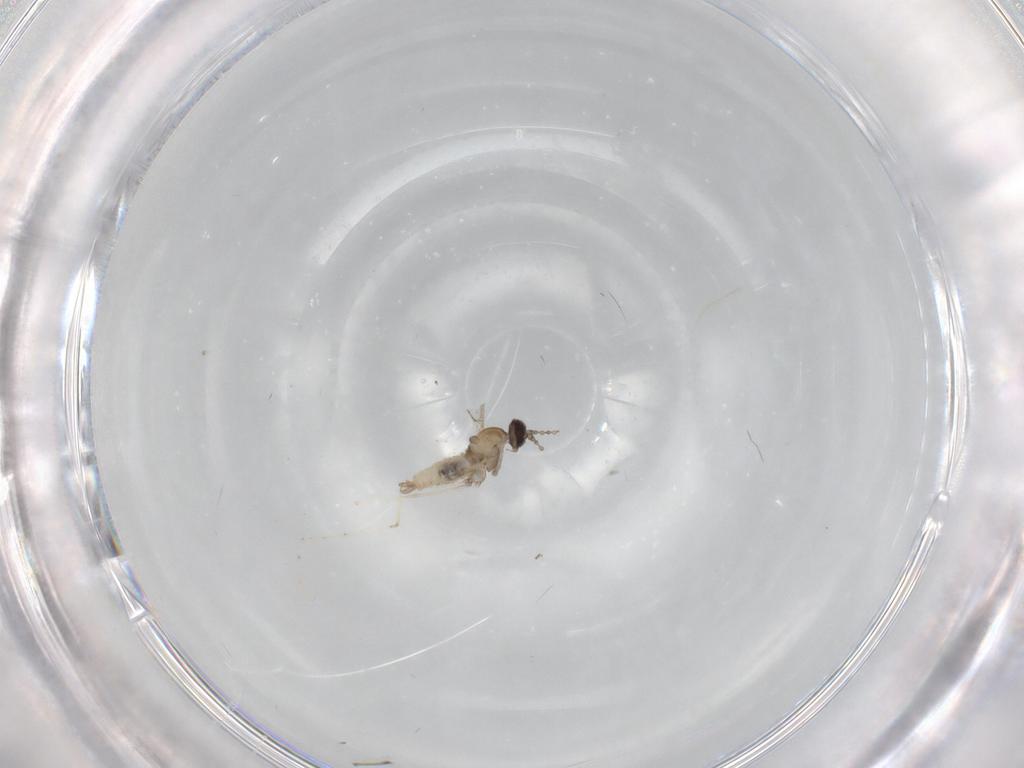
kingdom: Animalia
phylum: Arthropoda
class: Insecta
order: Diptera
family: Cecidomyiidae
